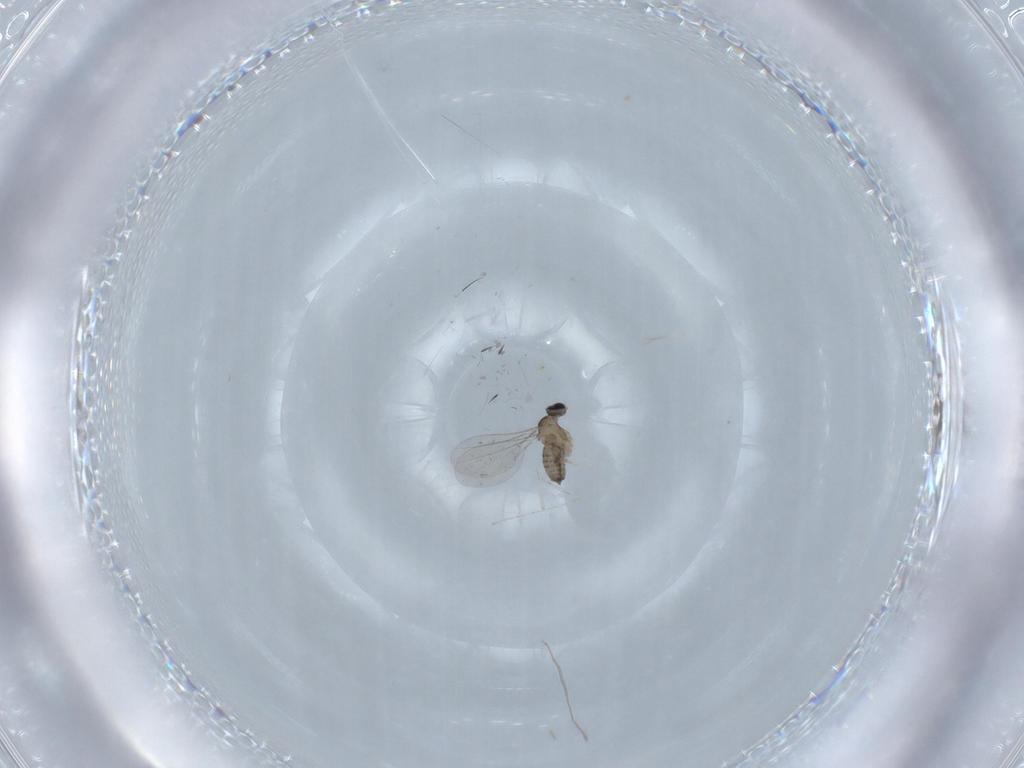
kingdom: Animalia
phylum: Arthropoda
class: Insecta
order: Diptera
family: Cecidomyiidae
